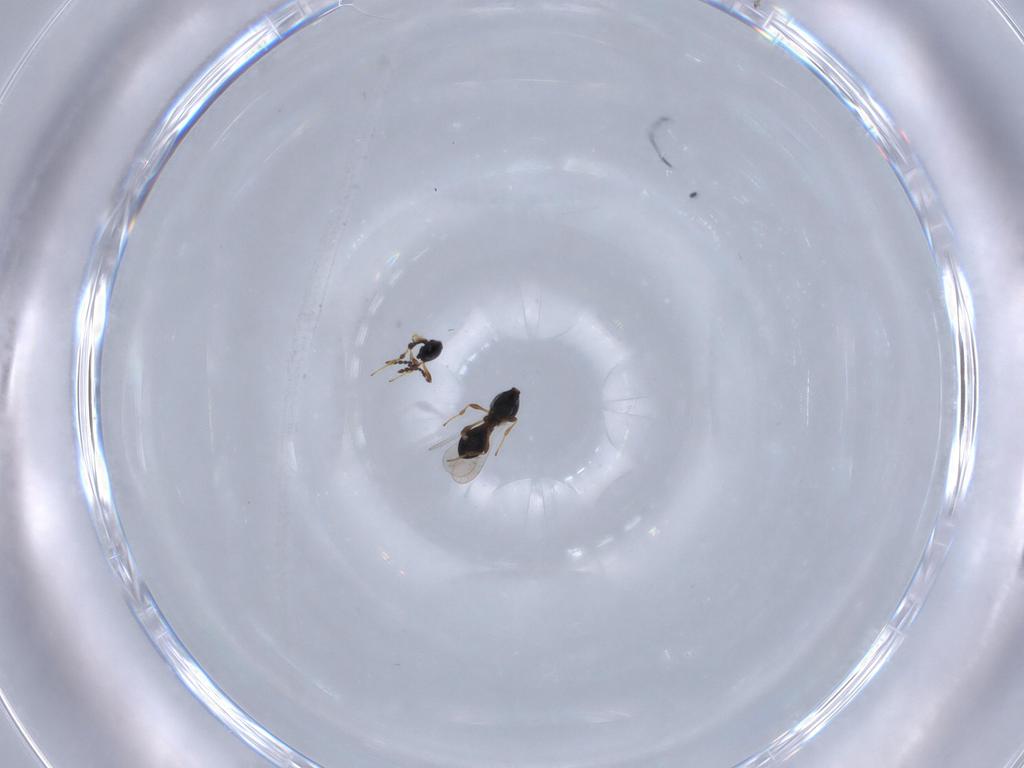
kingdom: Animalia
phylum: Arthropoda
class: Insecta
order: Hymenoptera
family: Platygastridae
